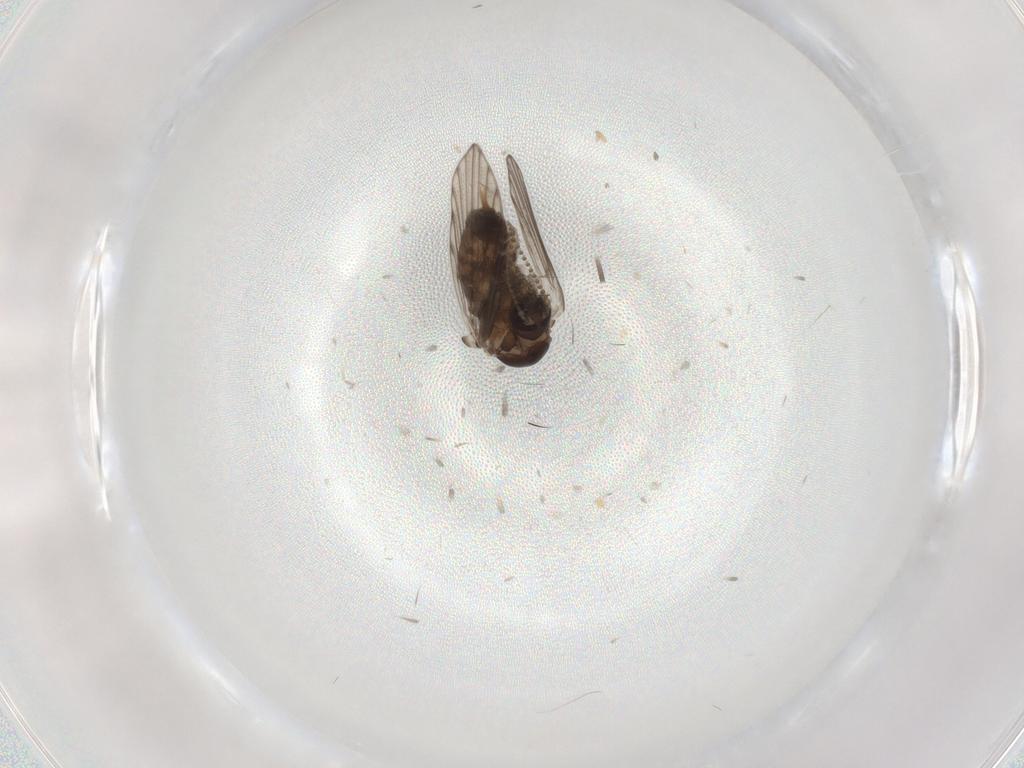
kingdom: Animalia
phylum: Arthropoda
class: Insecta
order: Diptera
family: Psychodidae
